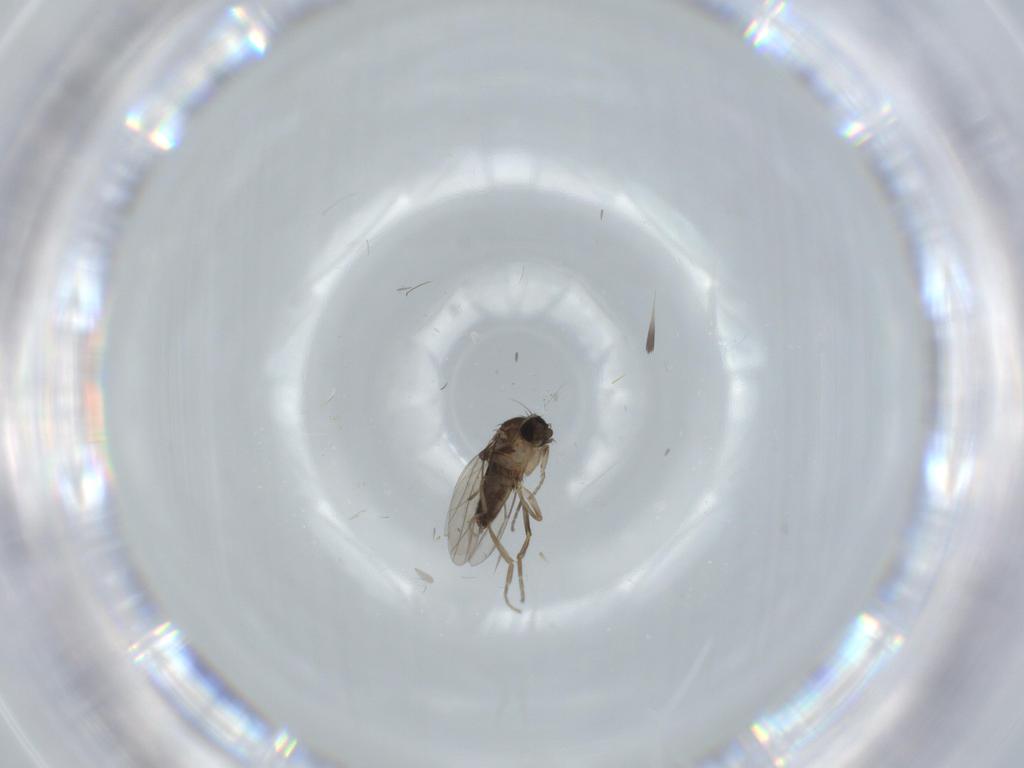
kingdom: Animalia
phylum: Arthropoda
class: Insecta
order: Diptera
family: Phoridae
